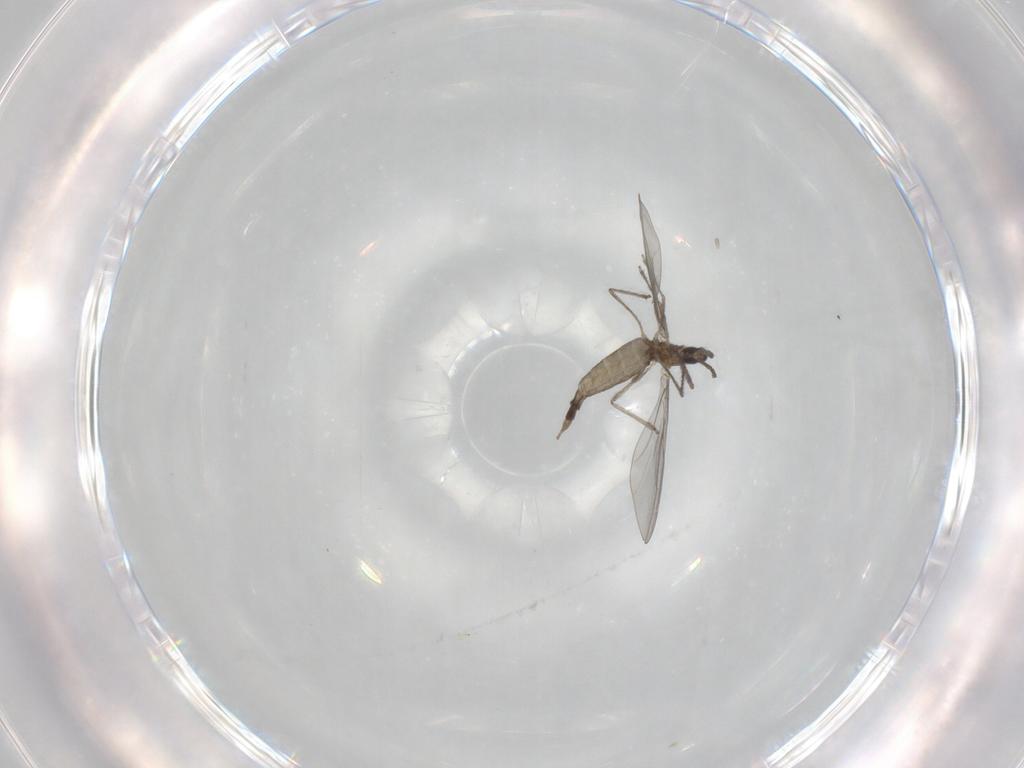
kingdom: Animalia
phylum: Arthropoda
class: Insecta
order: Diptera
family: Cecidomyiidae
